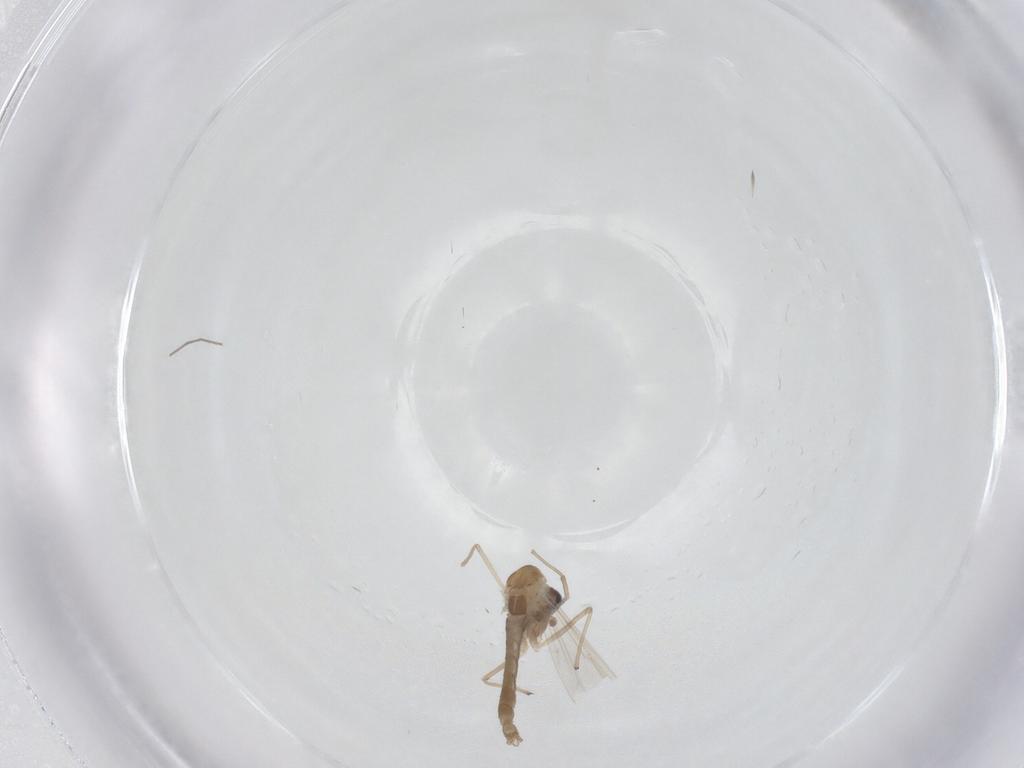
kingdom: Animalia
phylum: Arthropoda
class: Insecta
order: Diptera
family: Chironomidae
